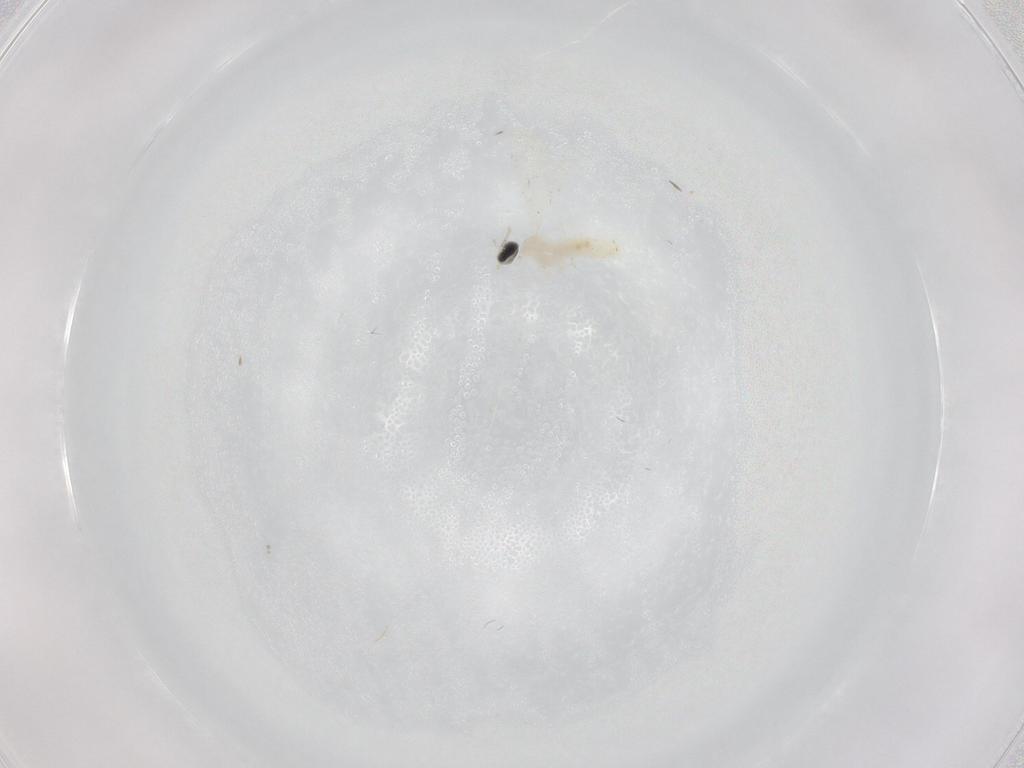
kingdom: Animalia
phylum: Arthropoda
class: Insecta
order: Diptera
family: Cecidomyiidae
